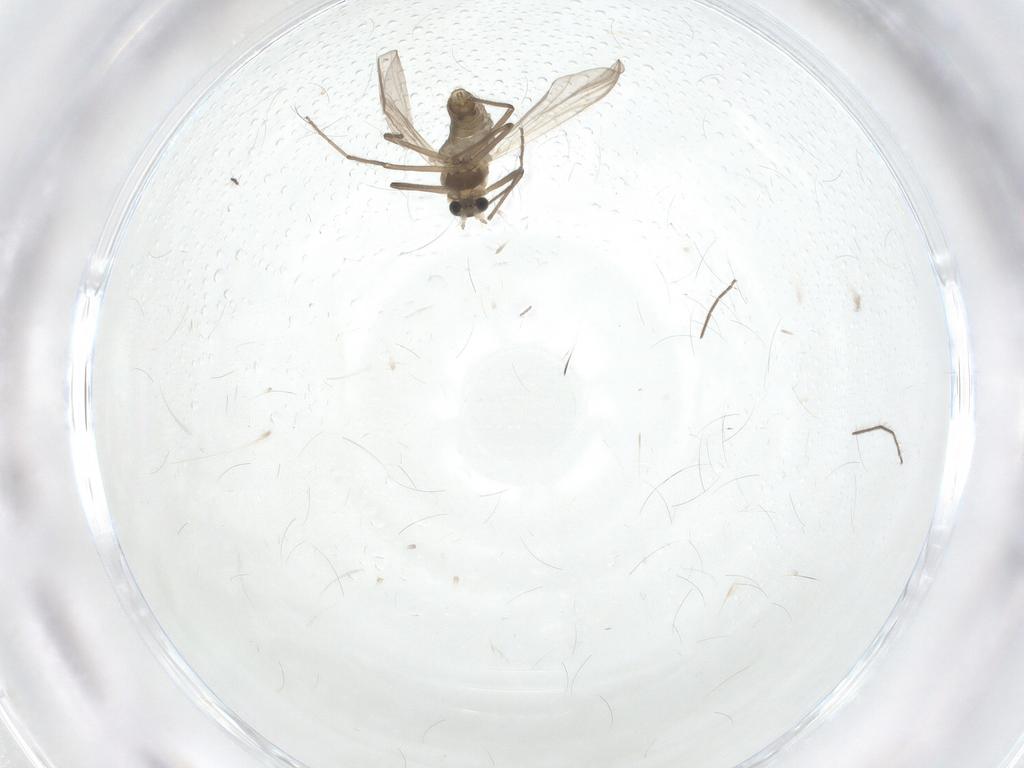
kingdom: Animalia
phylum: Arthropoda
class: Insecta
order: Diptera
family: Chironomidae
